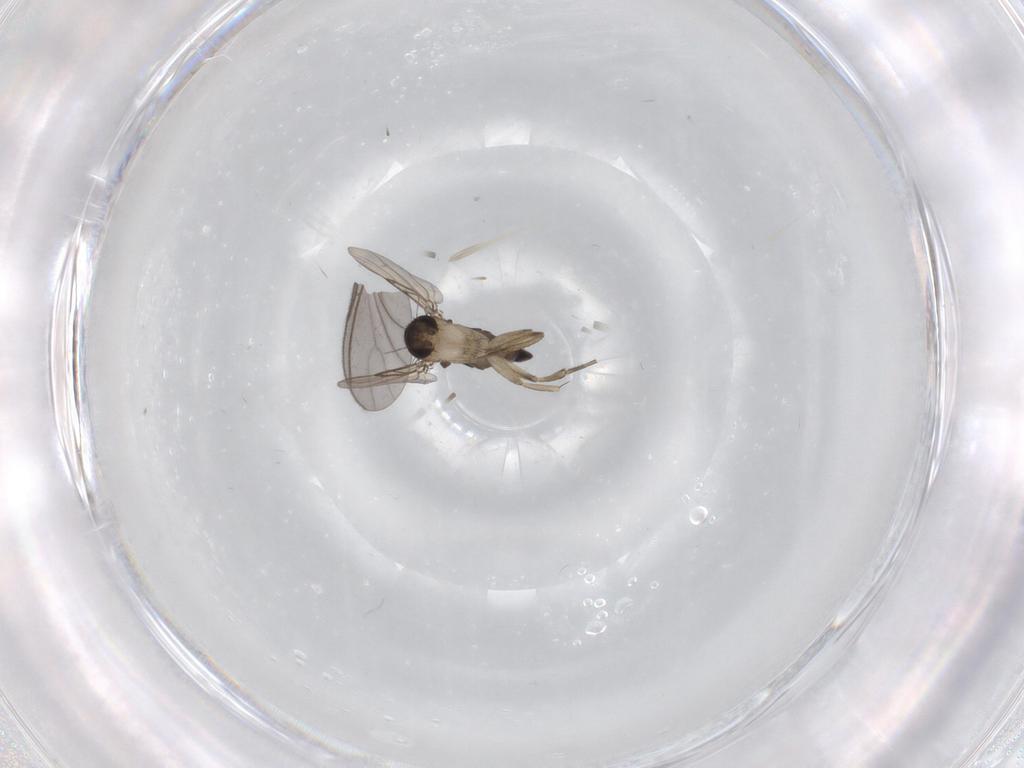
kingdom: Animalia
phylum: Arthropoda
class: Insecta
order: Diptera
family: Phoridae
